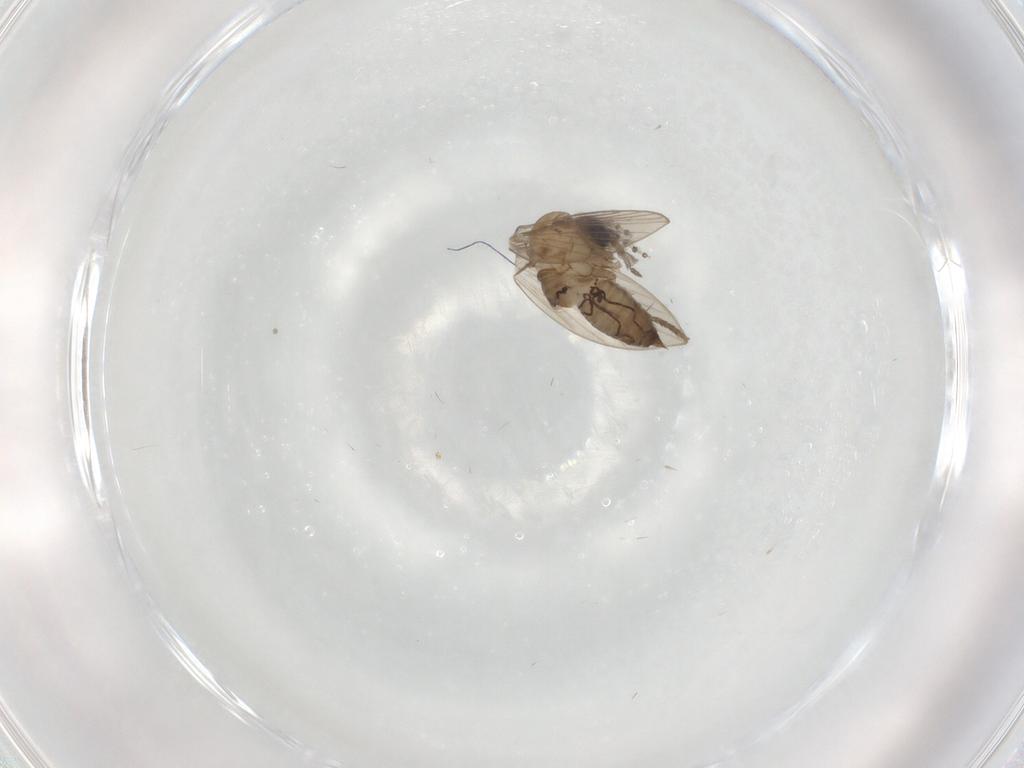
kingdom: Animalia
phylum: Arthropoda
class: Insecta
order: Diptera
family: Psychodidae
